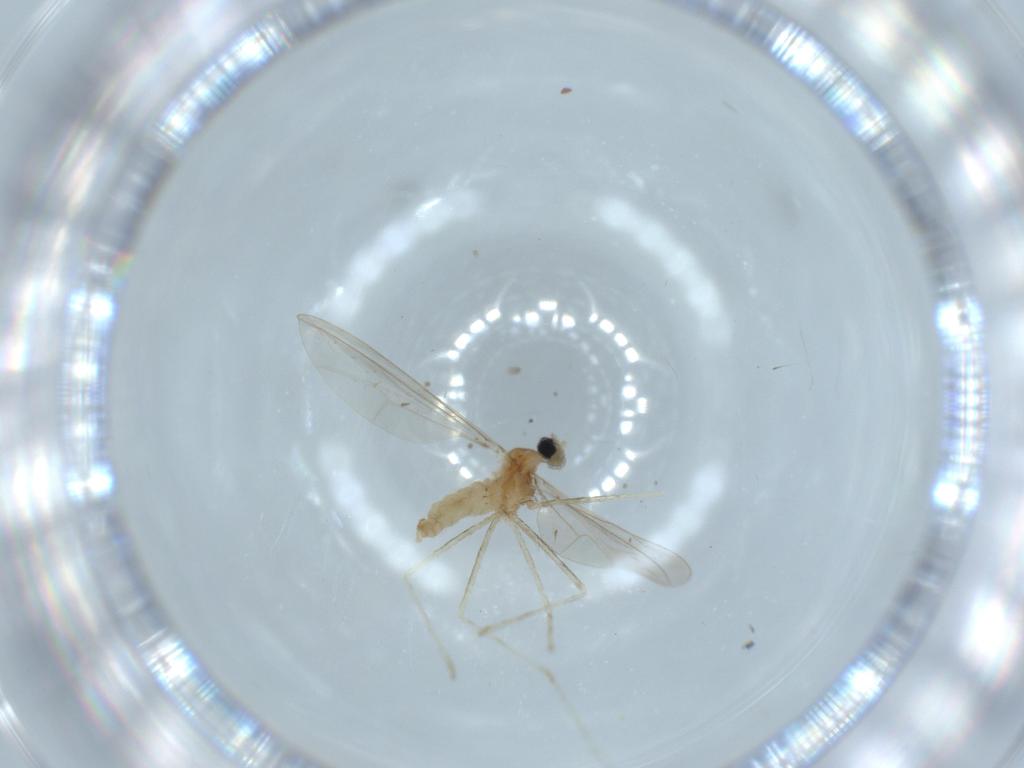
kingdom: Animalia
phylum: Arthropoda
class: Insecta
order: Diptera
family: Cecidomyiidae
